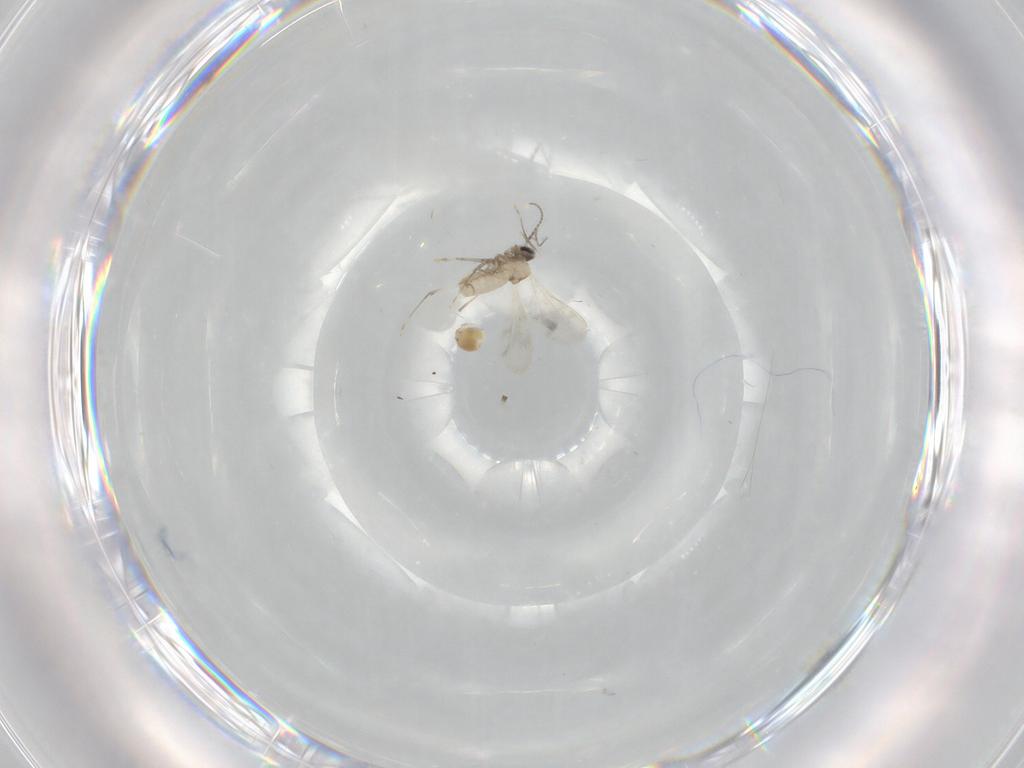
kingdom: Animalia
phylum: Arthropoda
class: Insecta
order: Diptera
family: Cecidomyiidae
